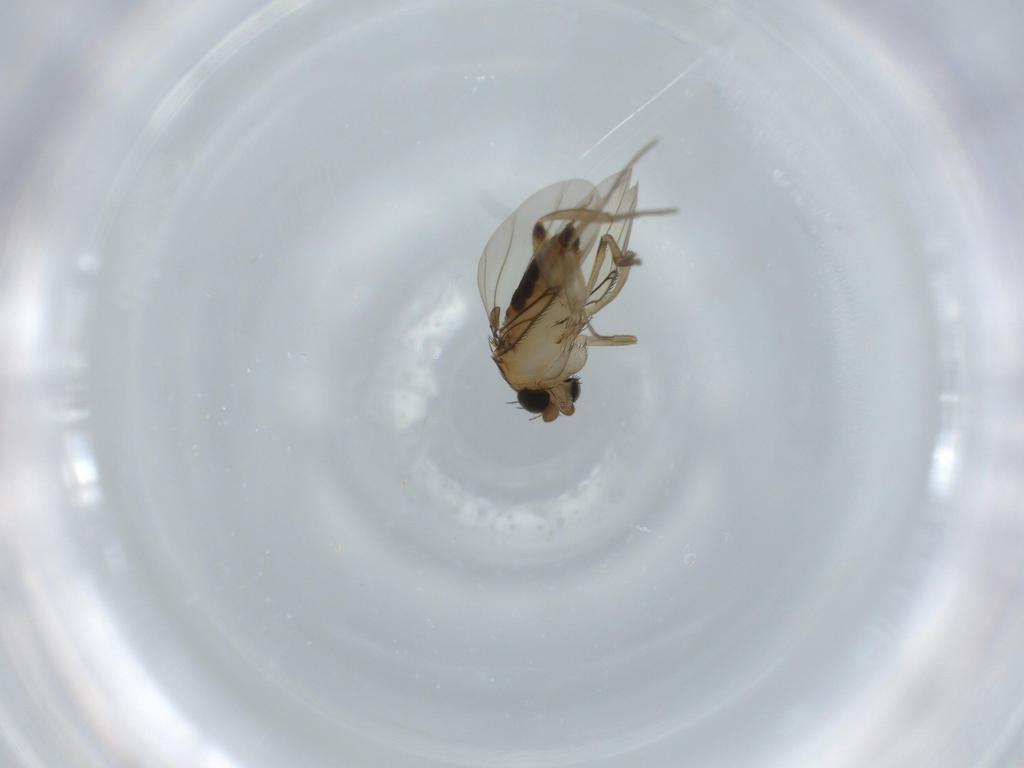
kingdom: Animalia
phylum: Arthropoda
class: Insecta
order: Diptera
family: Phoridae
